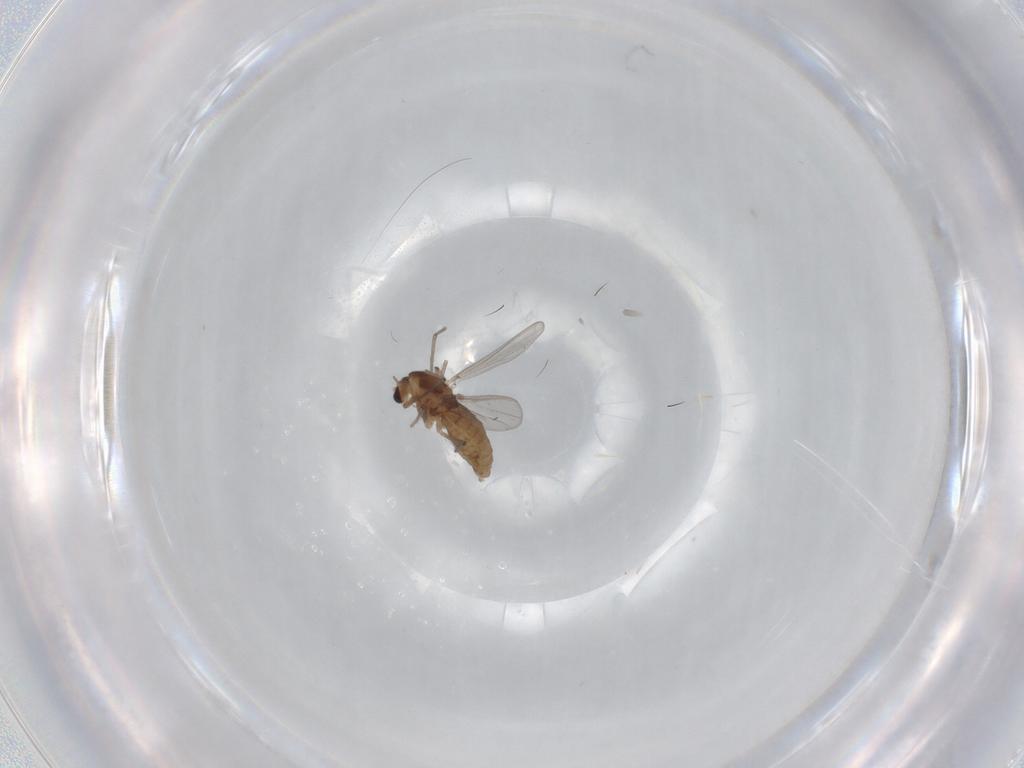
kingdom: Animalia
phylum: Arthropoda
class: Insecta
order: Diptera
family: Chironomidae
